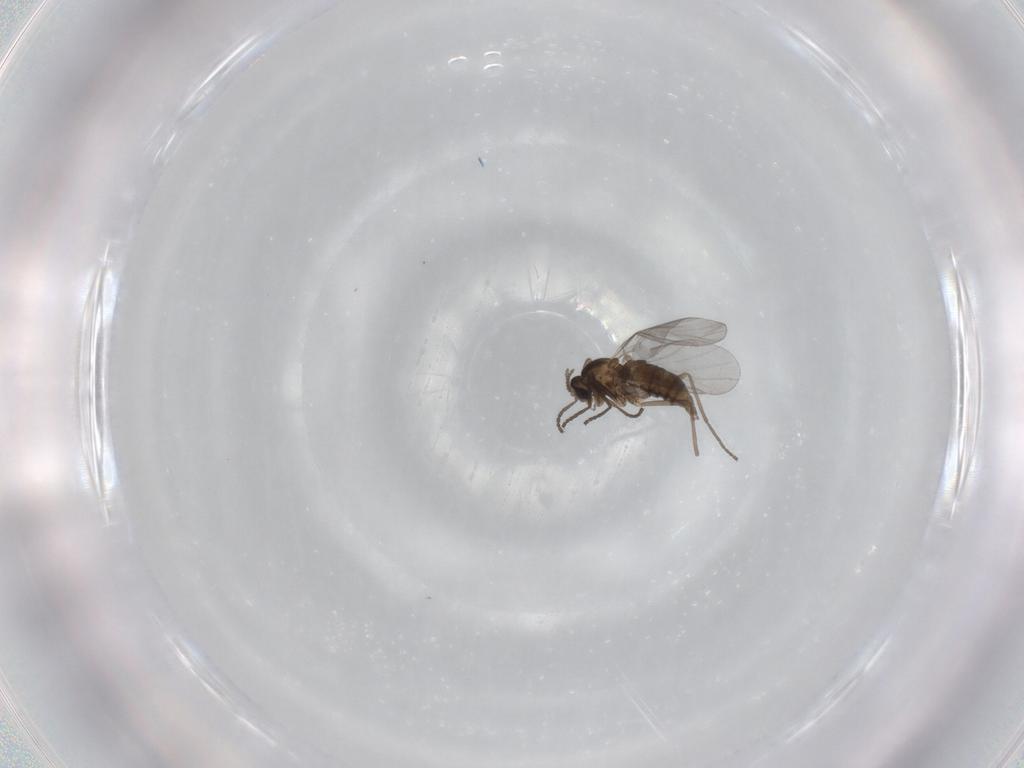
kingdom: Animalia
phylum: Arthropoda
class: Insecta
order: Diptera
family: Cecidomyiidae
